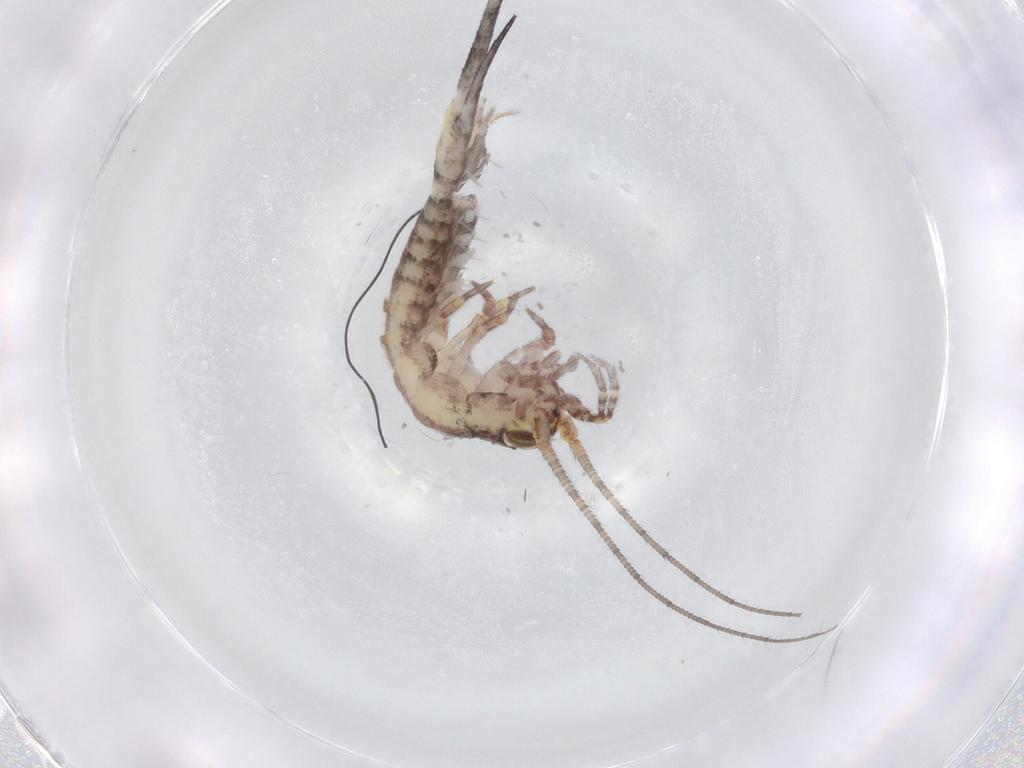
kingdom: Animalia
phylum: Arthropoda
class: Insecta
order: Archaeognatha
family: Machilidae
